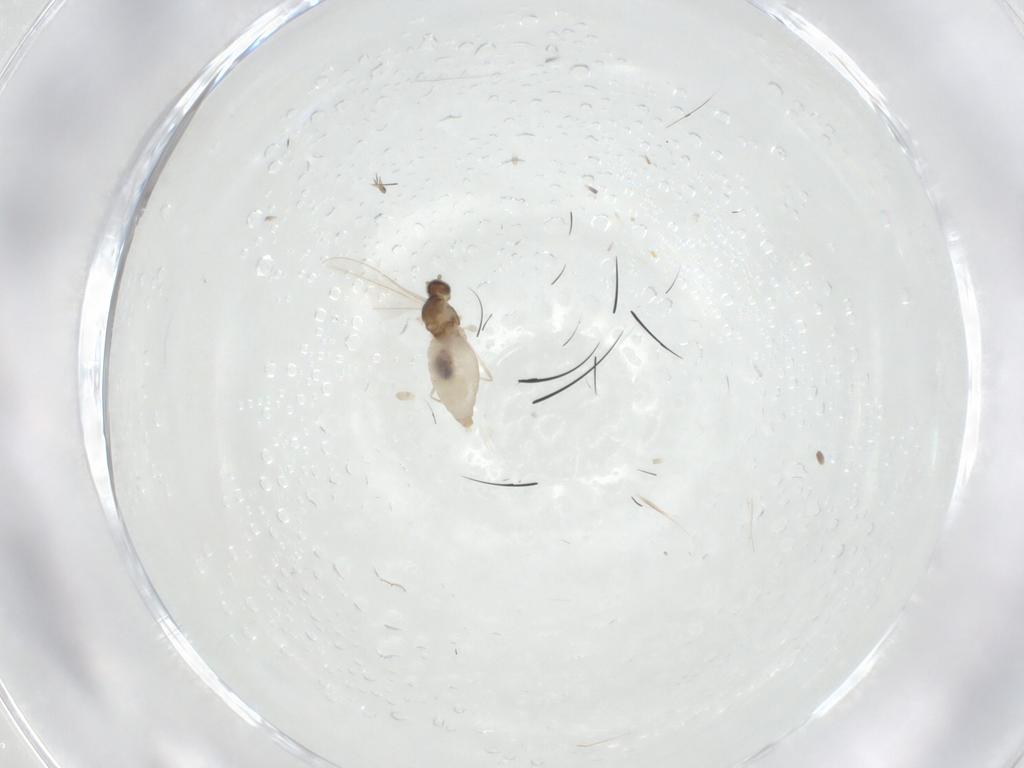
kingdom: Animalia
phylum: Arthropoda
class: Insecta
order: Diptera
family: Cecidomyiidae
